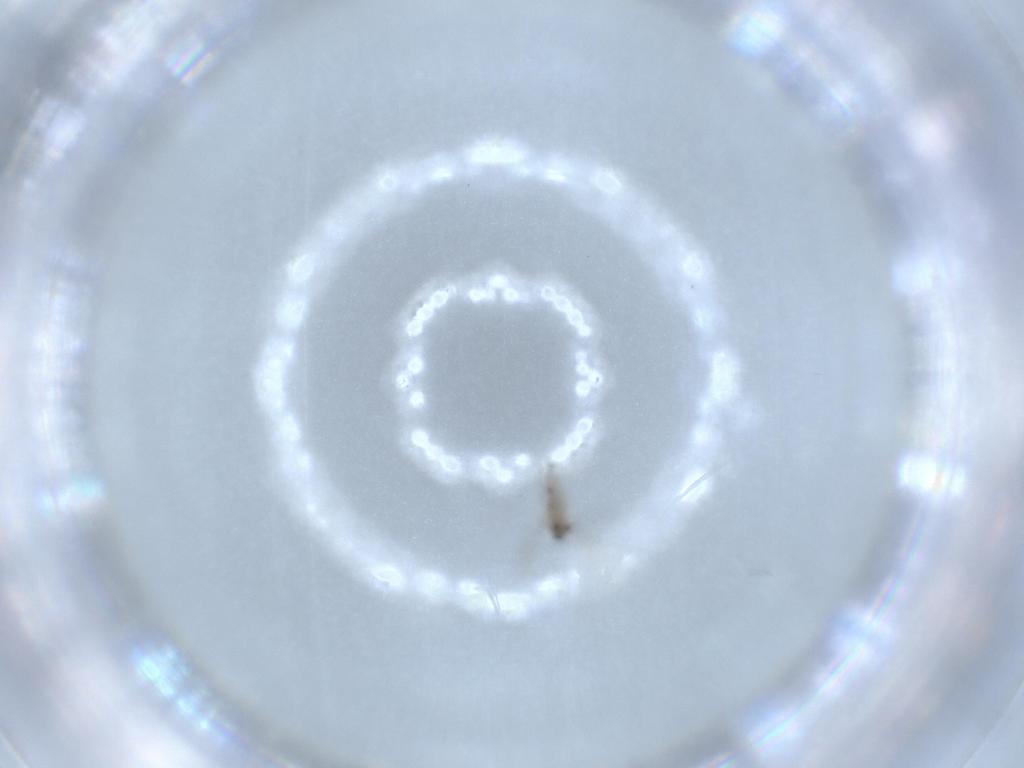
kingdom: Animalia
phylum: Arthropoda
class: Insecta
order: Diptera
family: Cecidomyiidae
